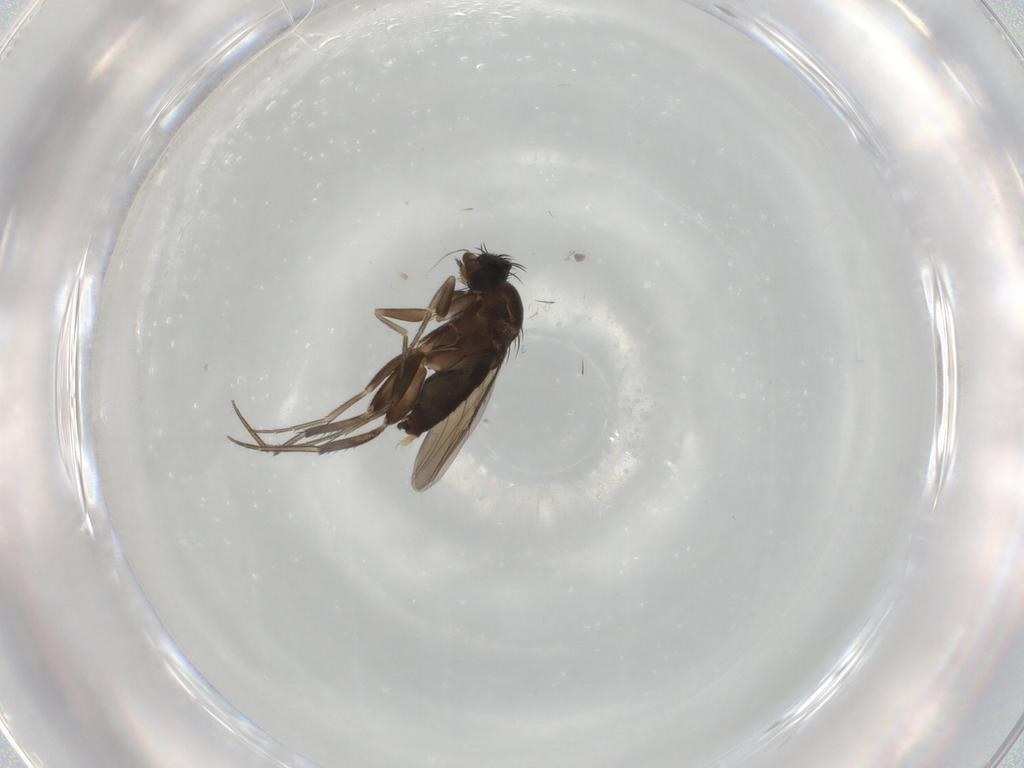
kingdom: Animalia
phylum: Arthropoda
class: Insecta
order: Diptera
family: Phoridae
